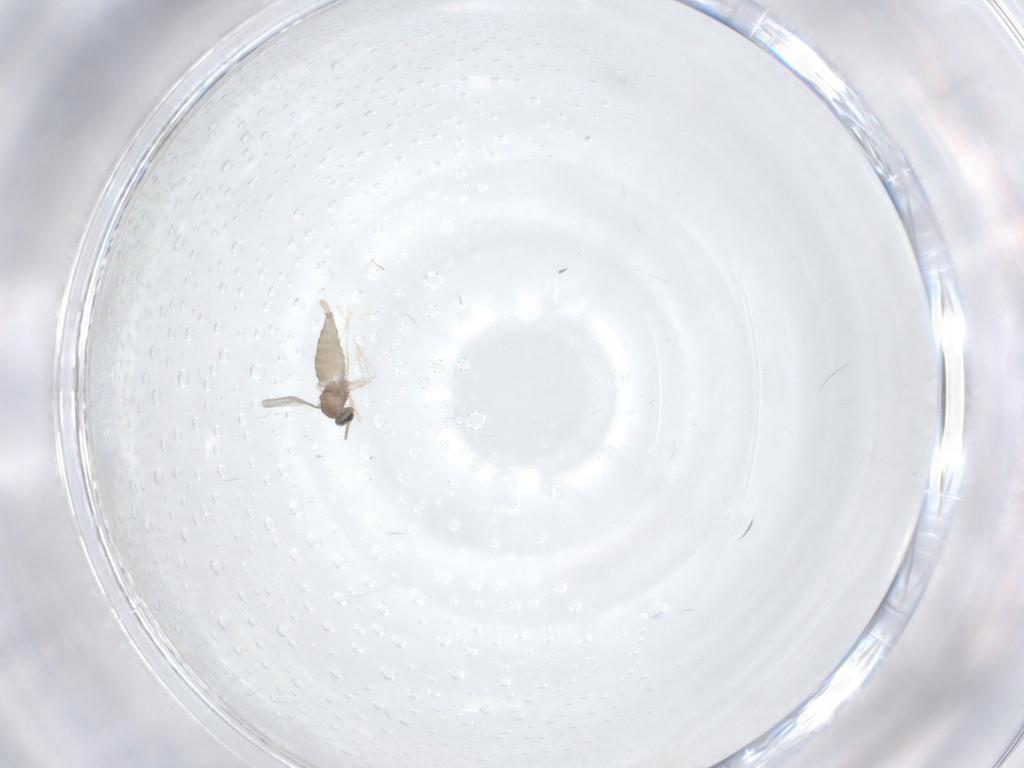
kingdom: Animalia
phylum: Arthropoda
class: Insecta
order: Diptera
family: Cecidomyiidae
